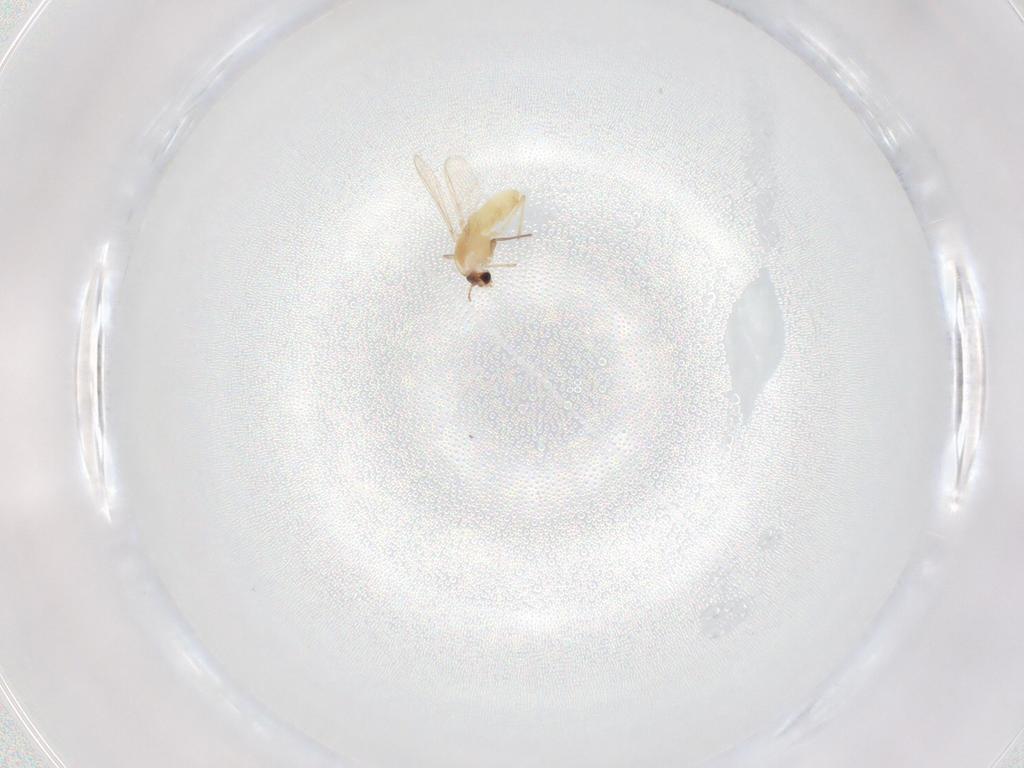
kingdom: Animalia
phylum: Arthropoda
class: Insecta
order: Diptera
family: Chironomidae
